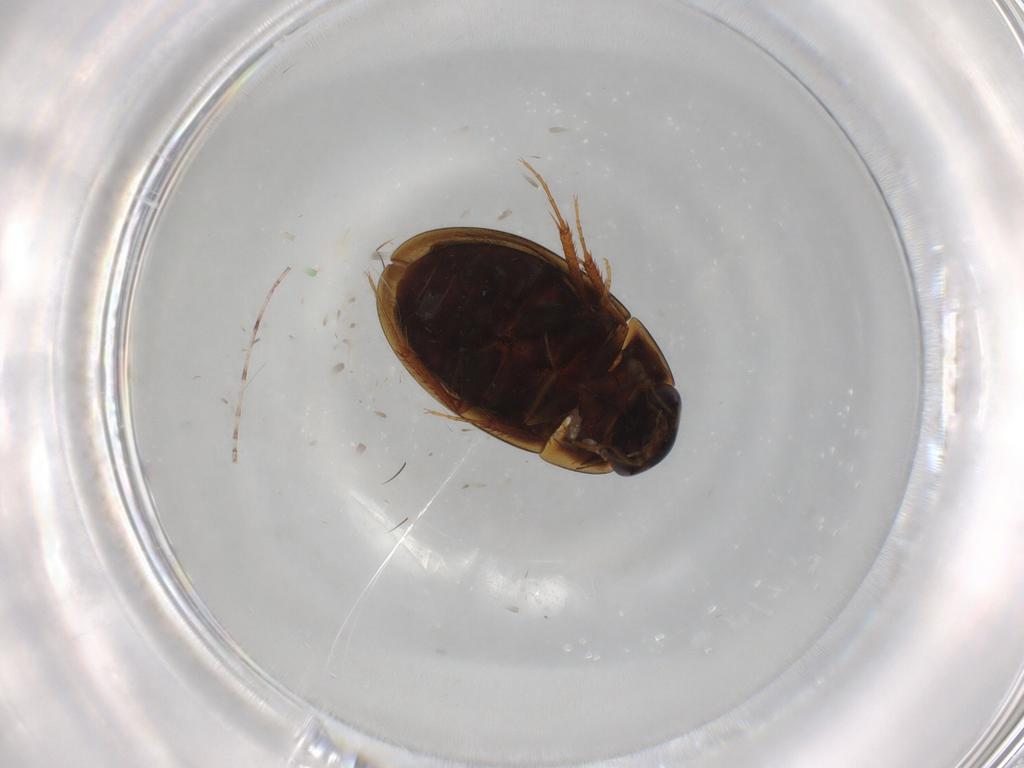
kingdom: Animalia
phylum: Arthropoda
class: Insecta
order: Coleoptera
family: Hydrophilidae
